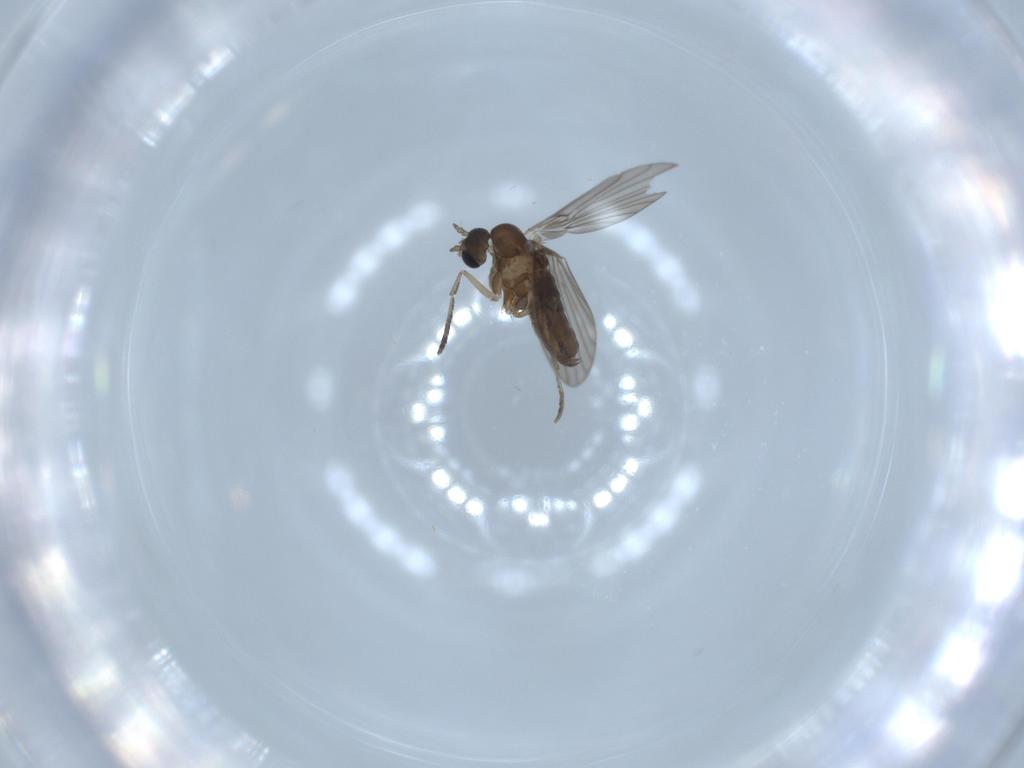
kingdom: Animalia
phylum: Arthropoda
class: Insecta
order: Diptera
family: Psychodidae
